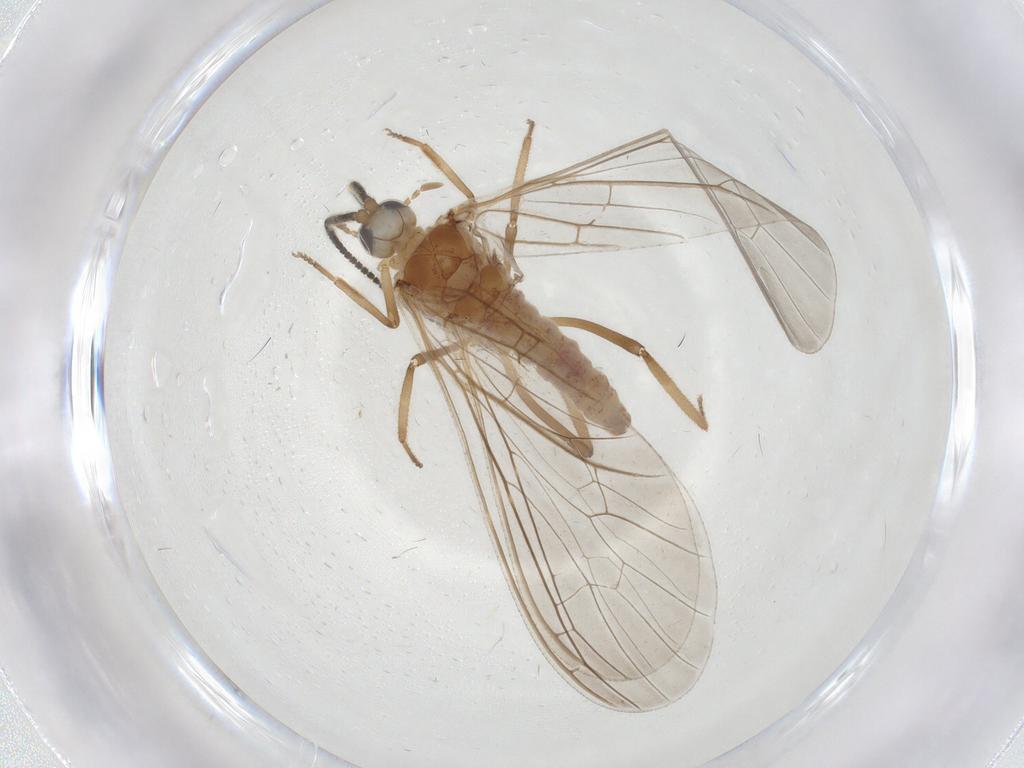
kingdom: Animalia
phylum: Arthropoda
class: Insecta
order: Neuroptera
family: Coniopterygidae
